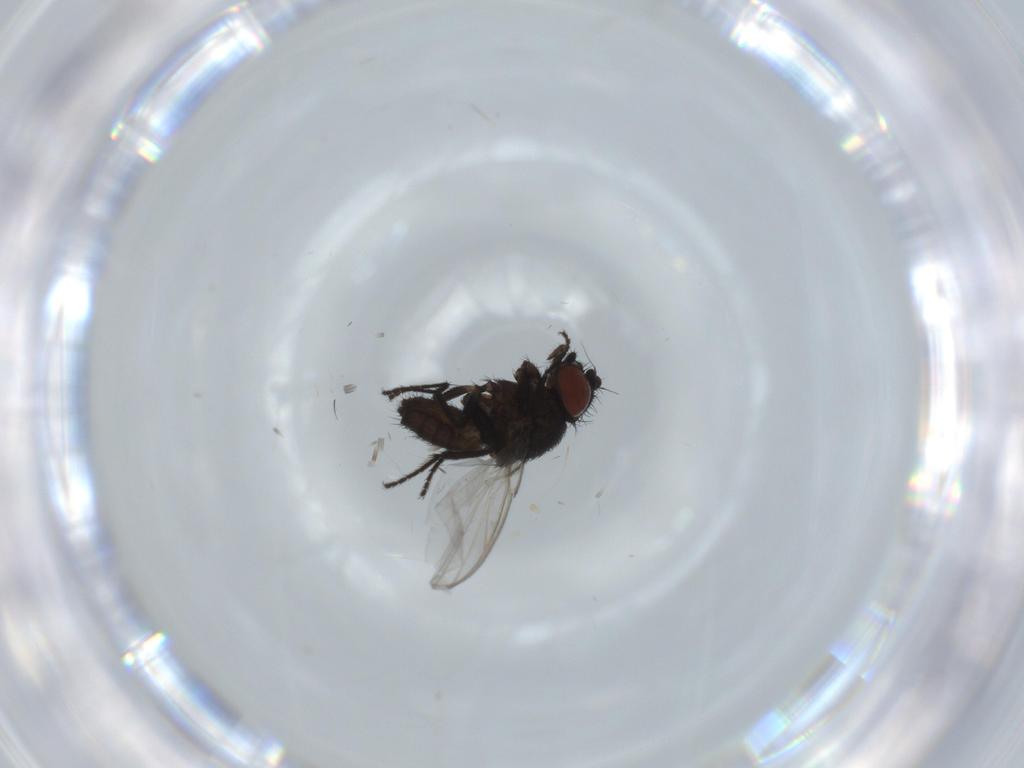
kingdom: Animalia
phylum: Arthropoda
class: Insecta
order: Diptera
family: Milichiidae
